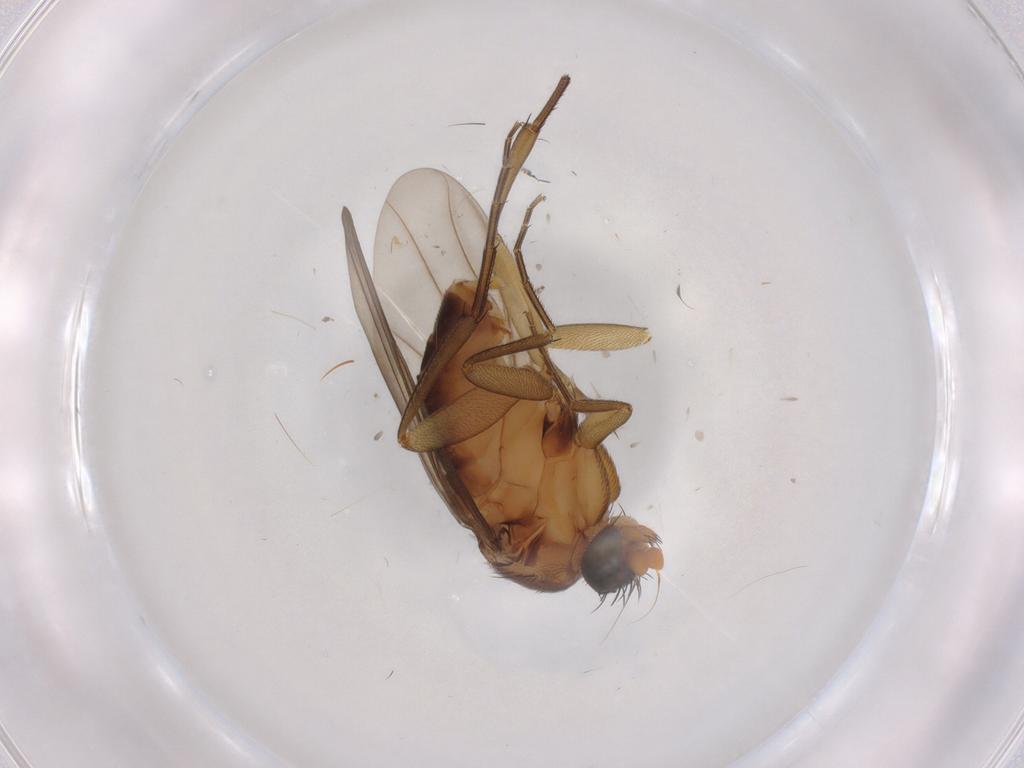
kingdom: Animalia
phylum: Arthropoda
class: Insecta
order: Diptera
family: Phoridae
